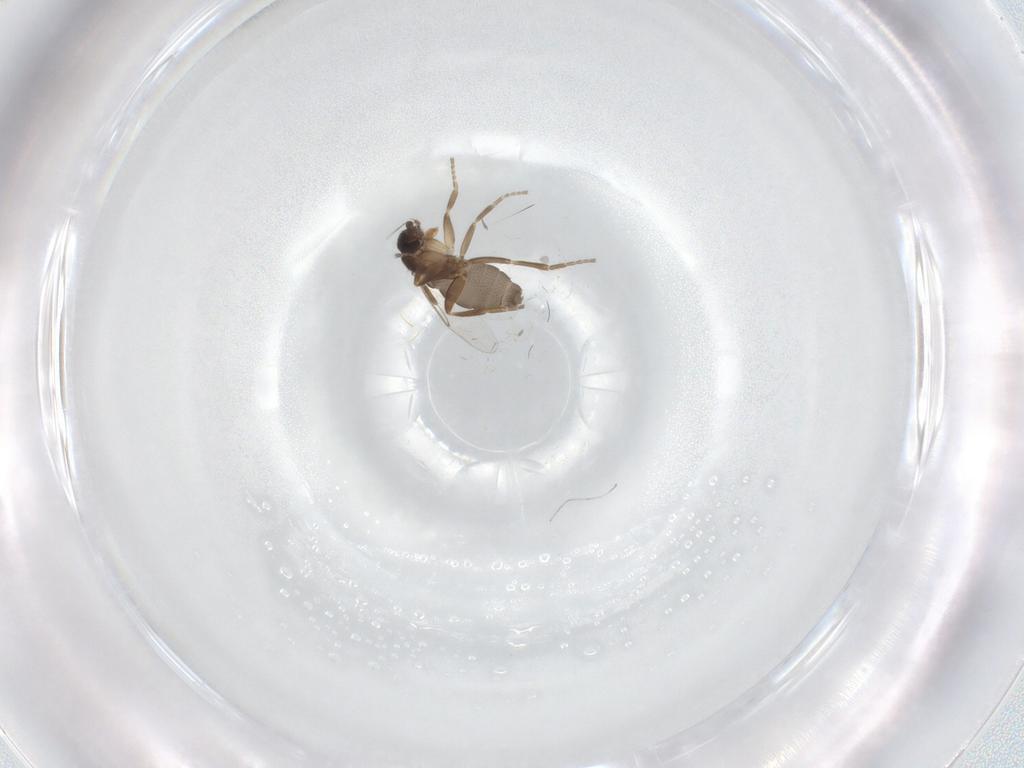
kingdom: Animalia
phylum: Arthropoda
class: Insecta
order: Diptera
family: Phoridae
